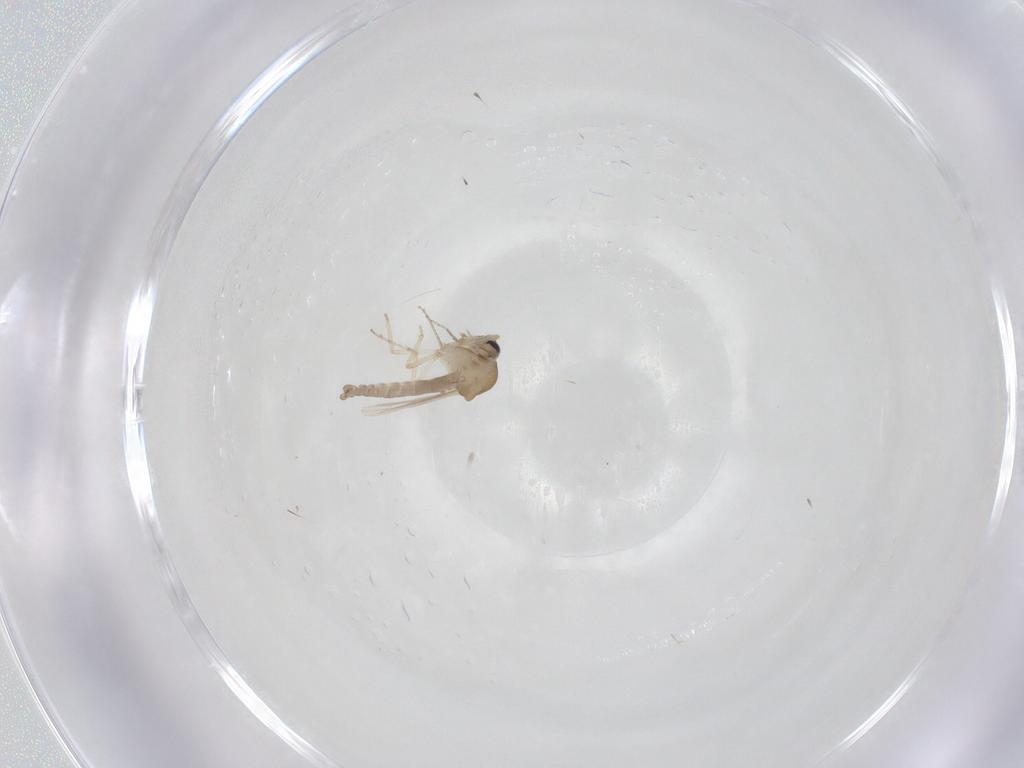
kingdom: Animalia
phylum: Arthropoda
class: Insecta
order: Diptera
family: Ceratopogonidae
